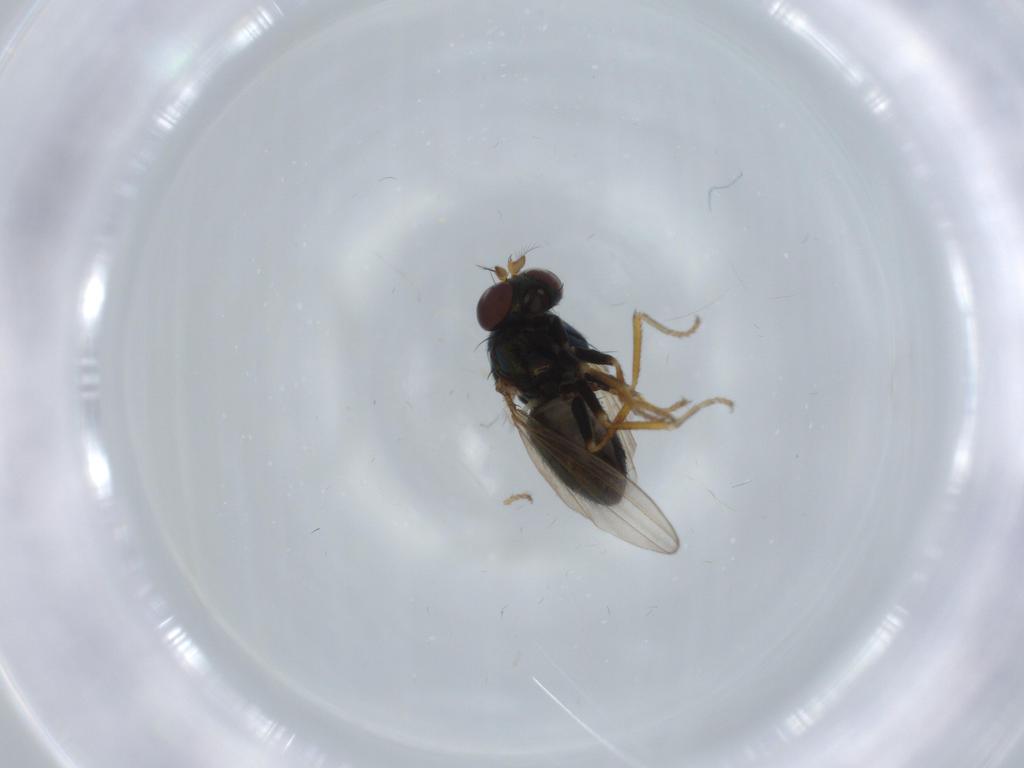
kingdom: Animalia
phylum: Arthropoda
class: Insecta
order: Diptera
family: Ephydridae
